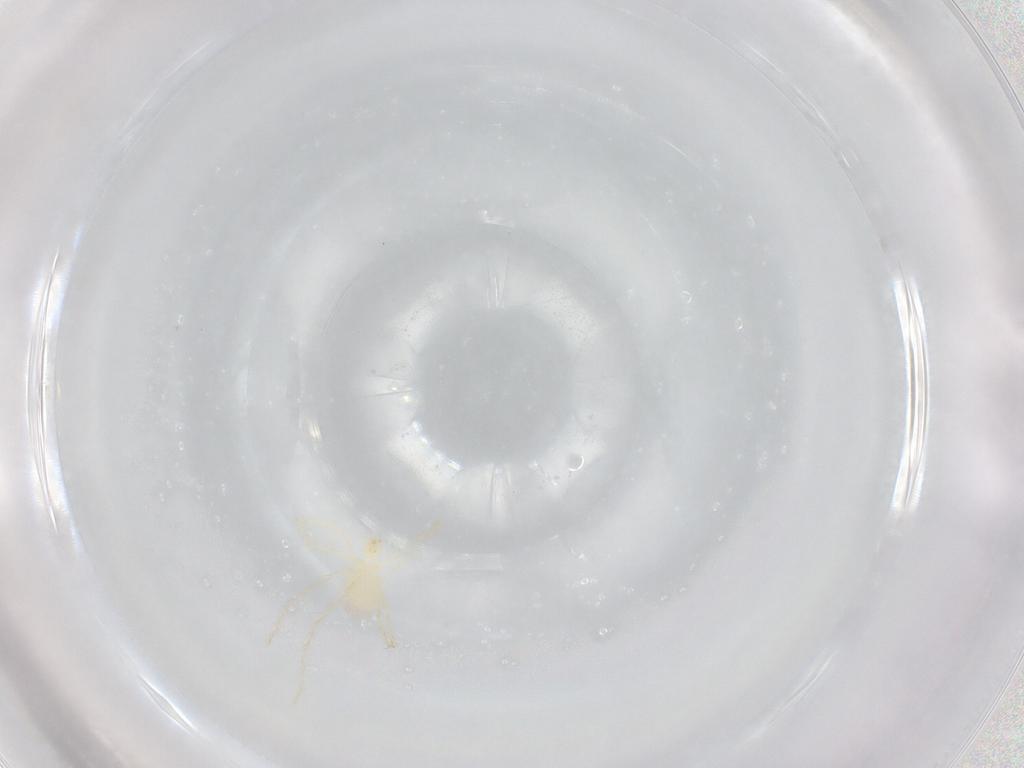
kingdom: Animalia
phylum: Arthropoda
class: Arachnida
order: Trombidiformes
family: Erythraeidae
